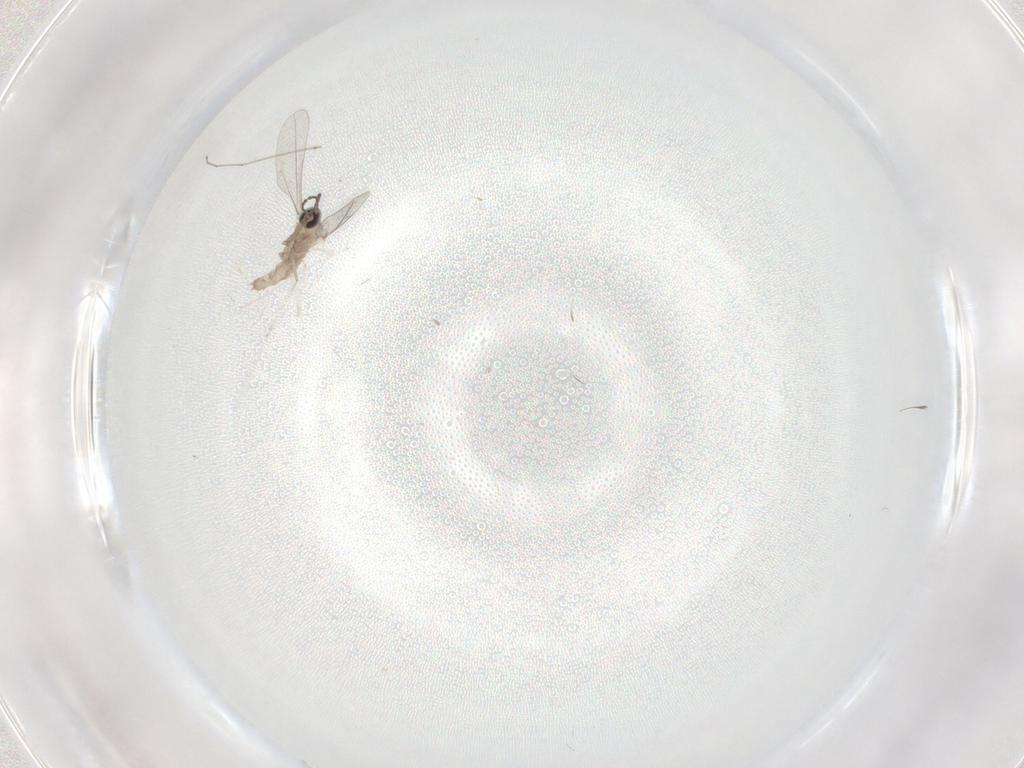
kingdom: Animalia
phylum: Arthropoda
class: Insecta
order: Diptera
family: Cecidomyiidae
